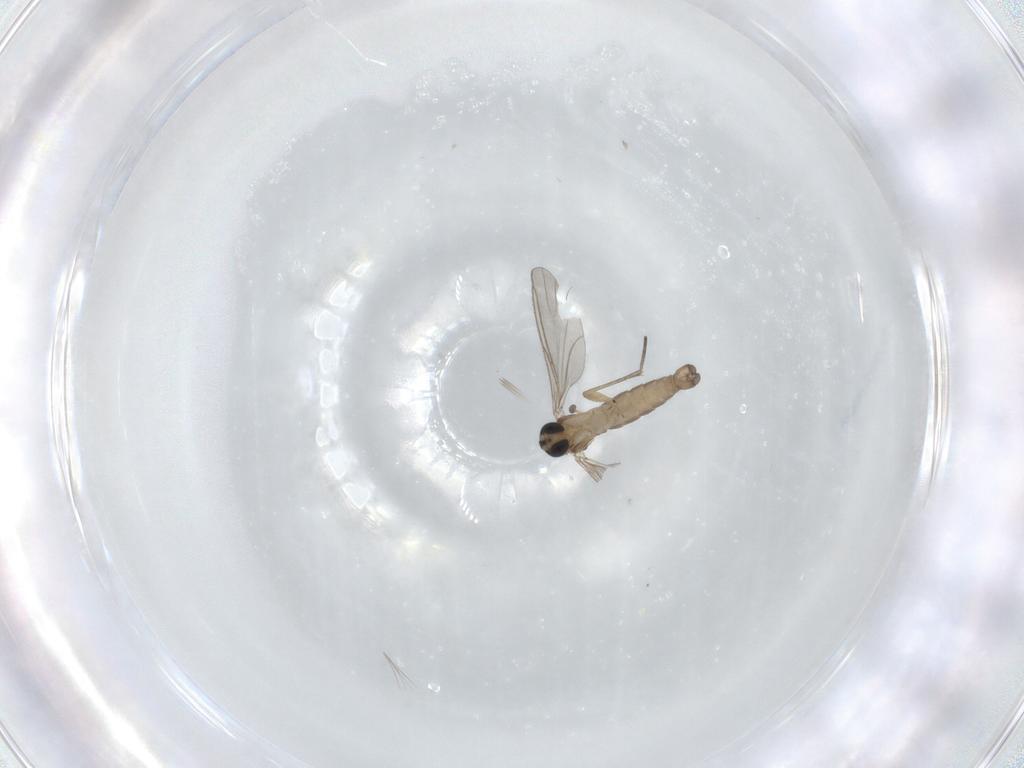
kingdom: Animalia
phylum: Arthropoda
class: Insecta
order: Diptera
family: Sciaridae
